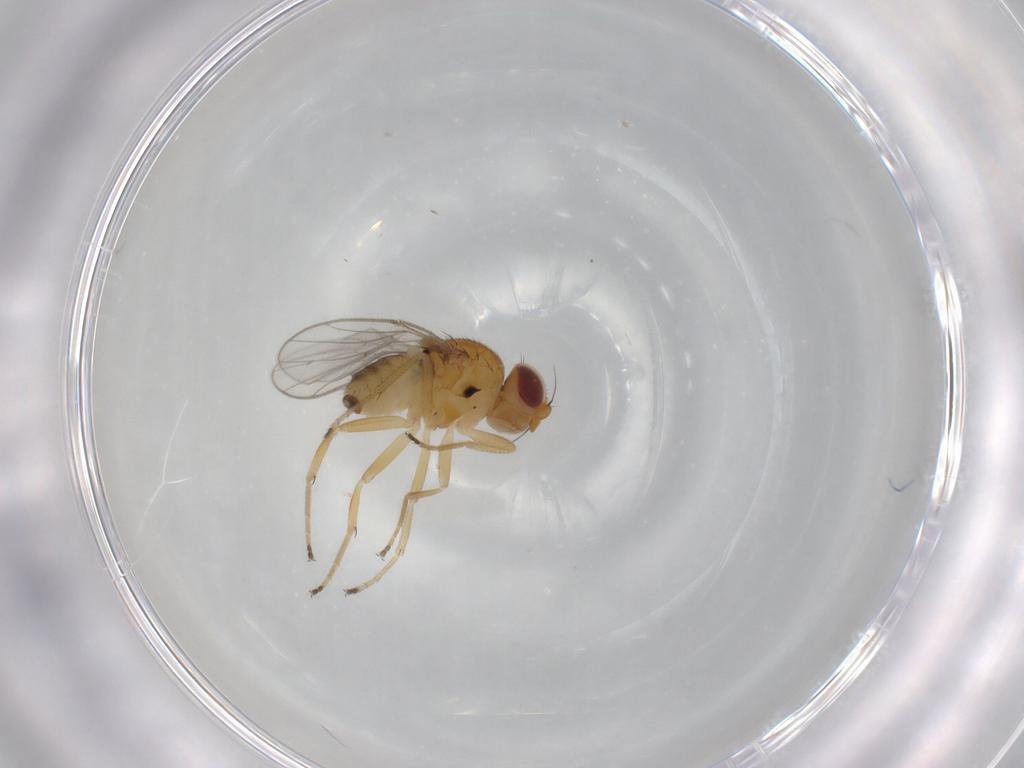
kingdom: Animalia
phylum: Arthropoda
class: Insecta
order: Diptera
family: Chloropidae
